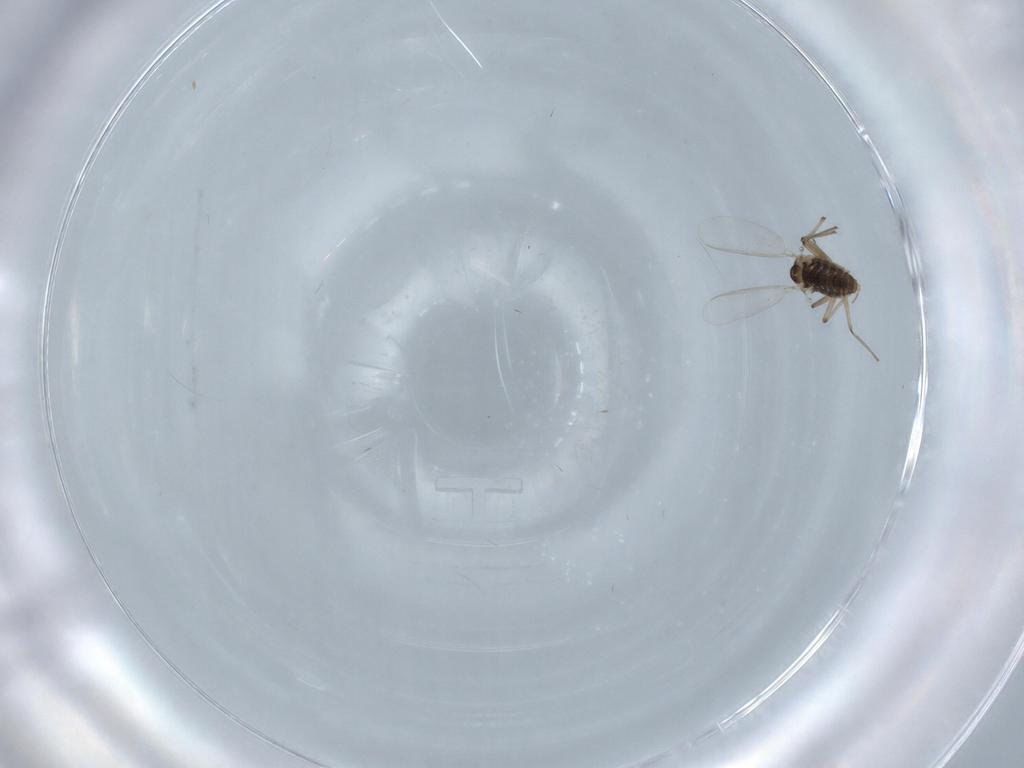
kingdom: Animalia
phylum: Arthropoda
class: Insecta
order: Diptera
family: Chironomidae
